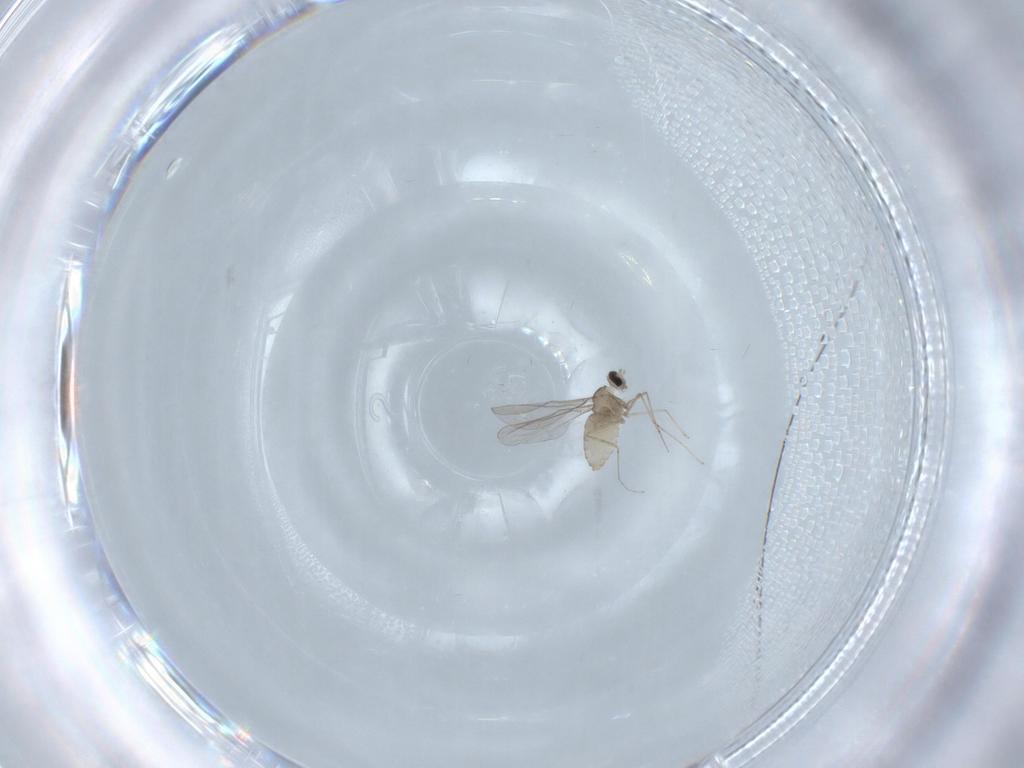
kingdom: Animalia
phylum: Arthropoda
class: Insecta
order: Diptera
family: Cecidomyiidae
